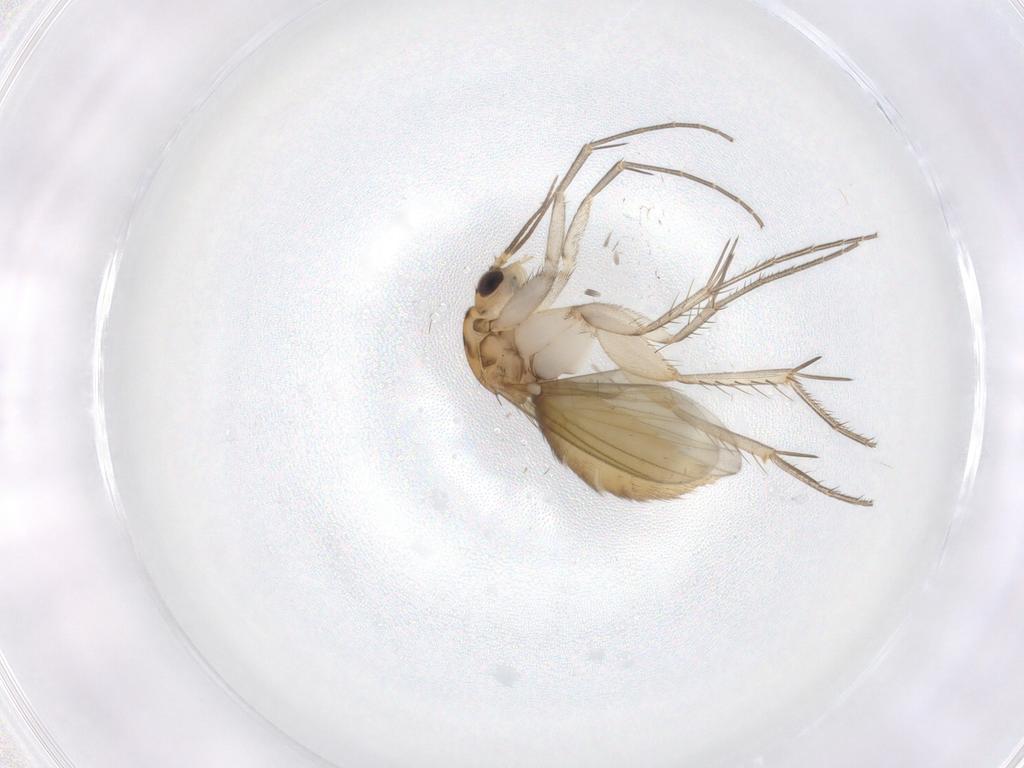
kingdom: Animalia
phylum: Arthropoda
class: Insecta
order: Diptera
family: Mycetophilidae
